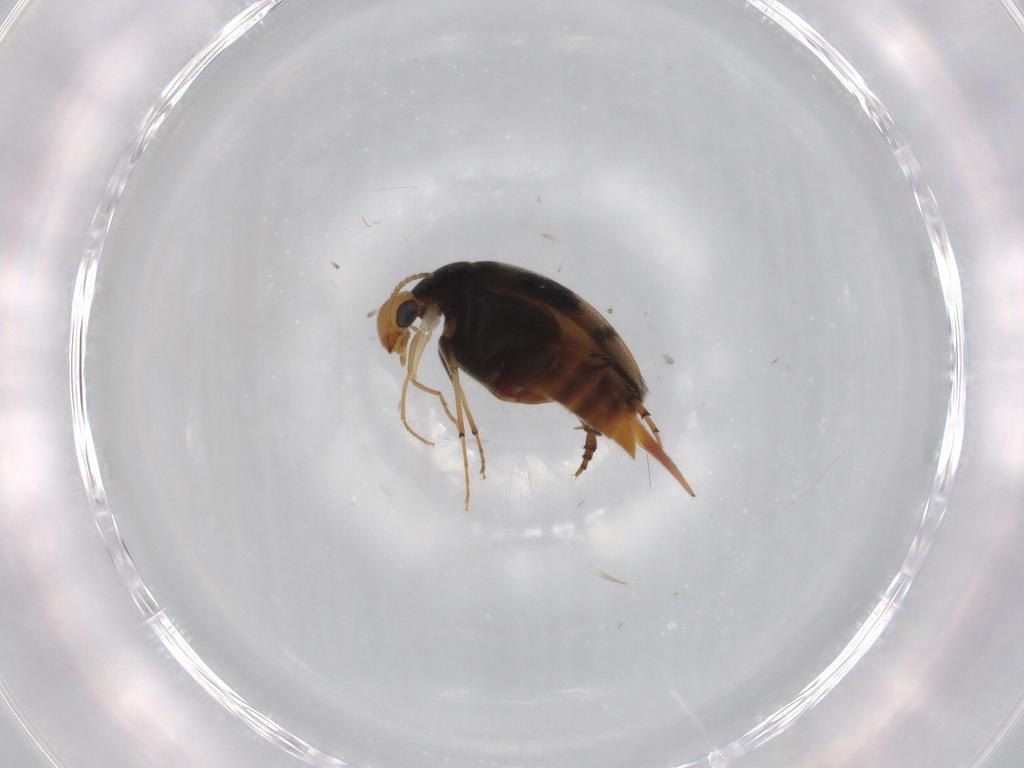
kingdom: Animalia
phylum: Arthropoda
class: Insecta
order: Coleoptera
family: Mordellidae
